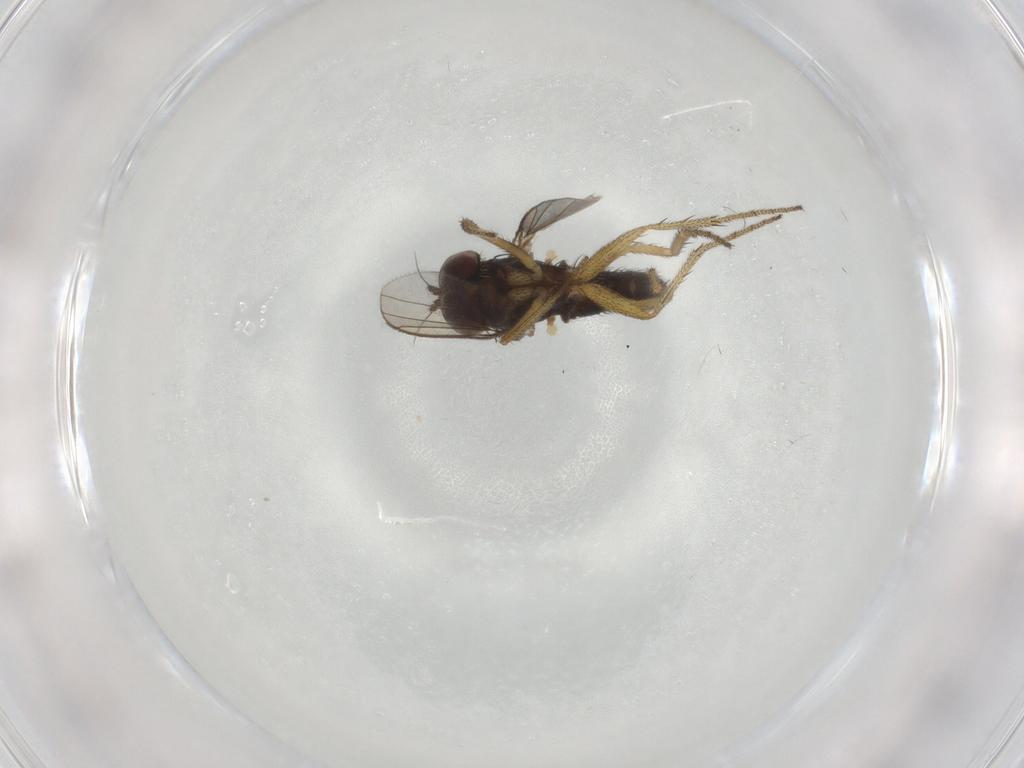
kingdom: Animalia
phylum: Arthropoda
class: Insecta
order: Diptera
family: Dolichopodidae
